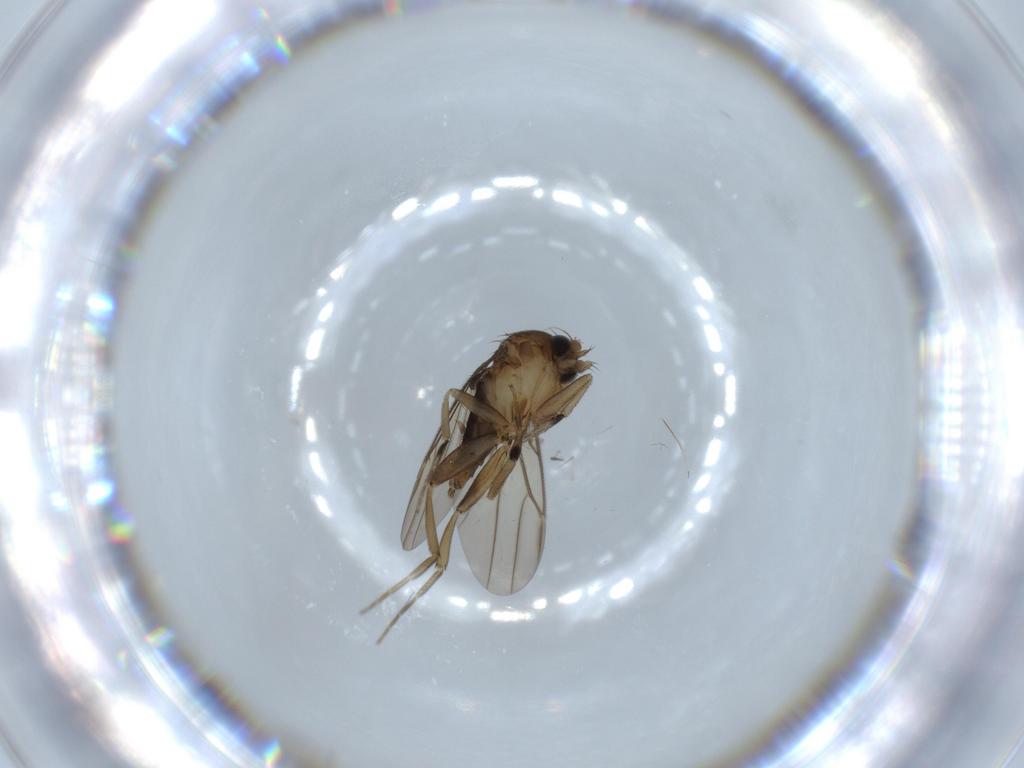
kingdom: Animalia
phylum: Arthropoda
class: Insecta
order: Diptera
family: Phoridae
